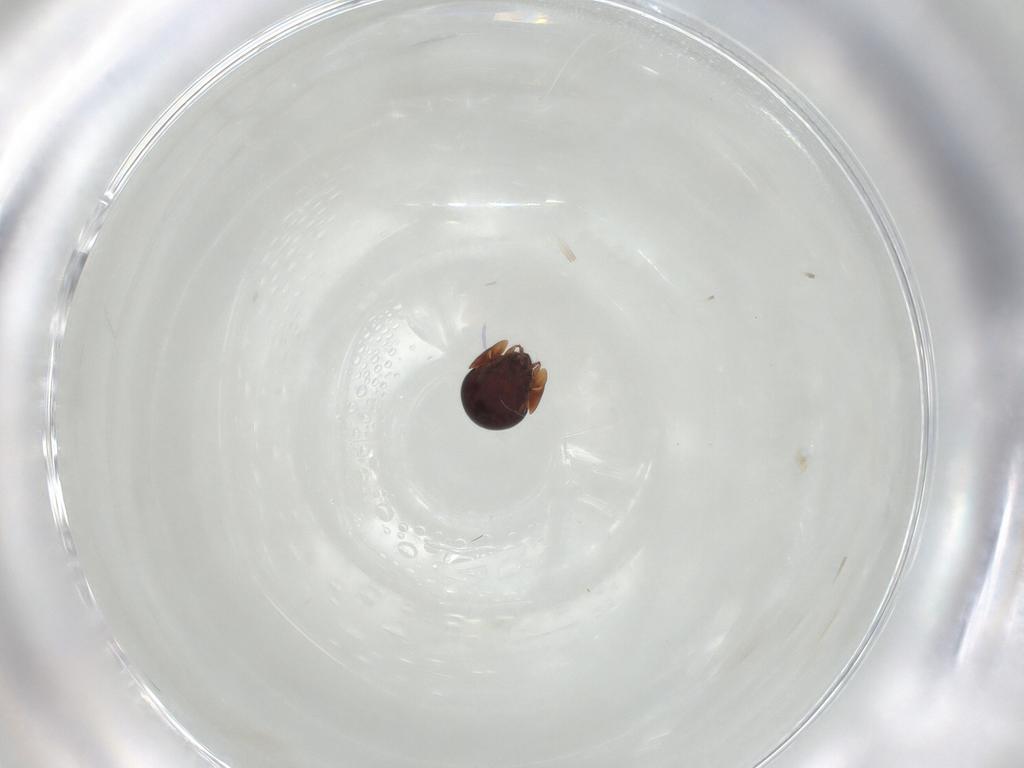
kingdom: Animalia
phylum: Arthropoda
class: Arachnida
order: Sarcoptiformes
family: Galumnidae
